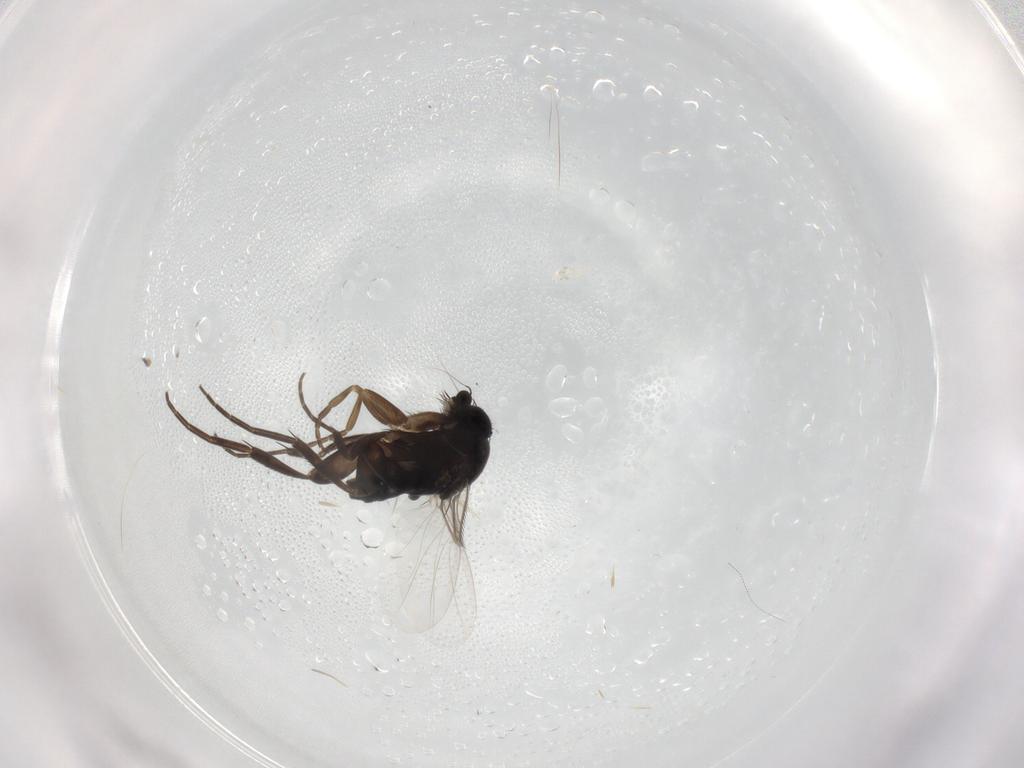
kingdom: Animalia
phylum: Arthropoda
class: Insecta
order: Diptera
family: Phoridae
